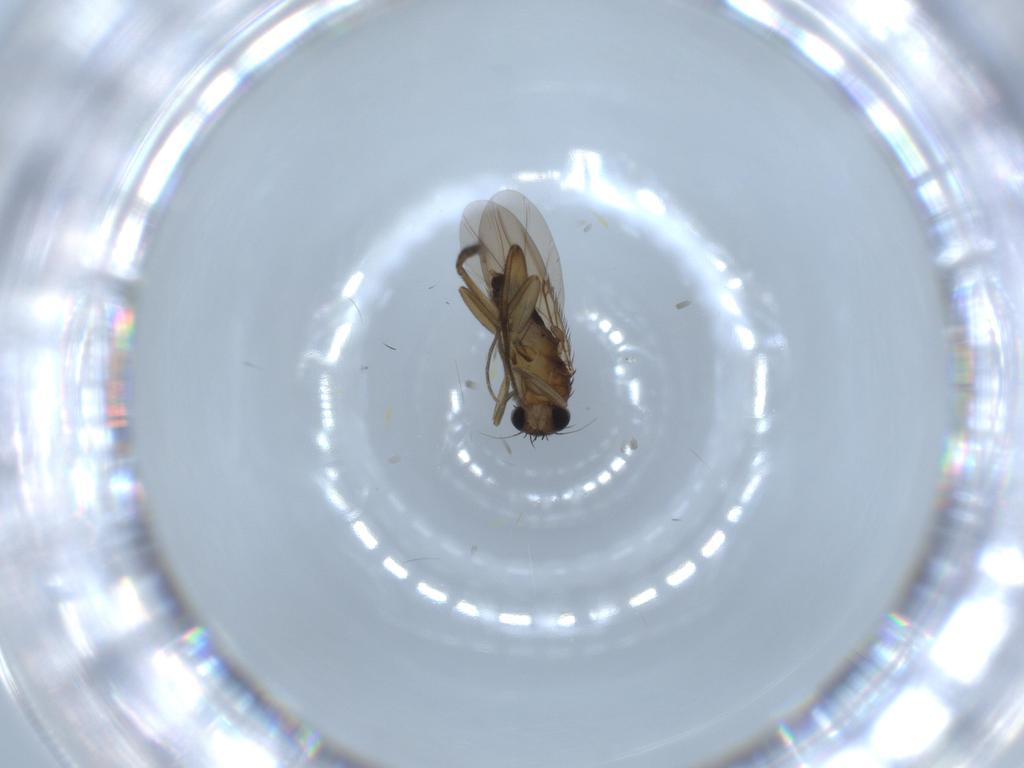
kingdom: Animalia
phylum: Arthropoda
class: Insecta
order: Diptera
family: Phoridae
